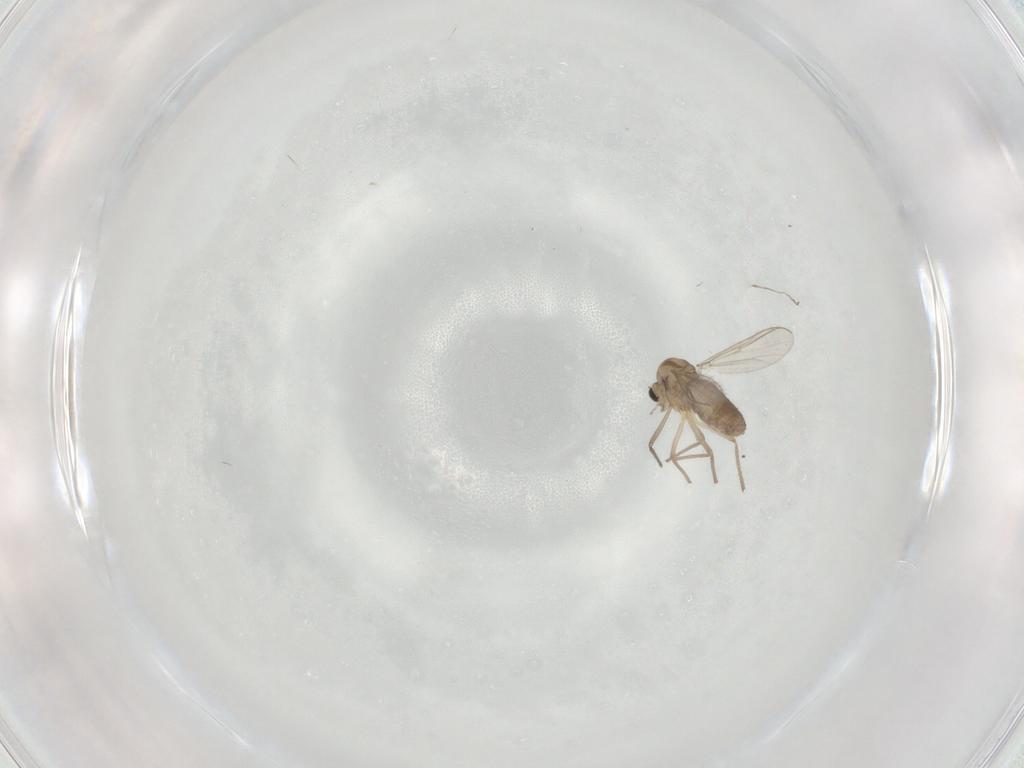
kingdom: Animalia
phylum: Arthropoda
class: Insecta
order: Diptera
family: Chironomidae
